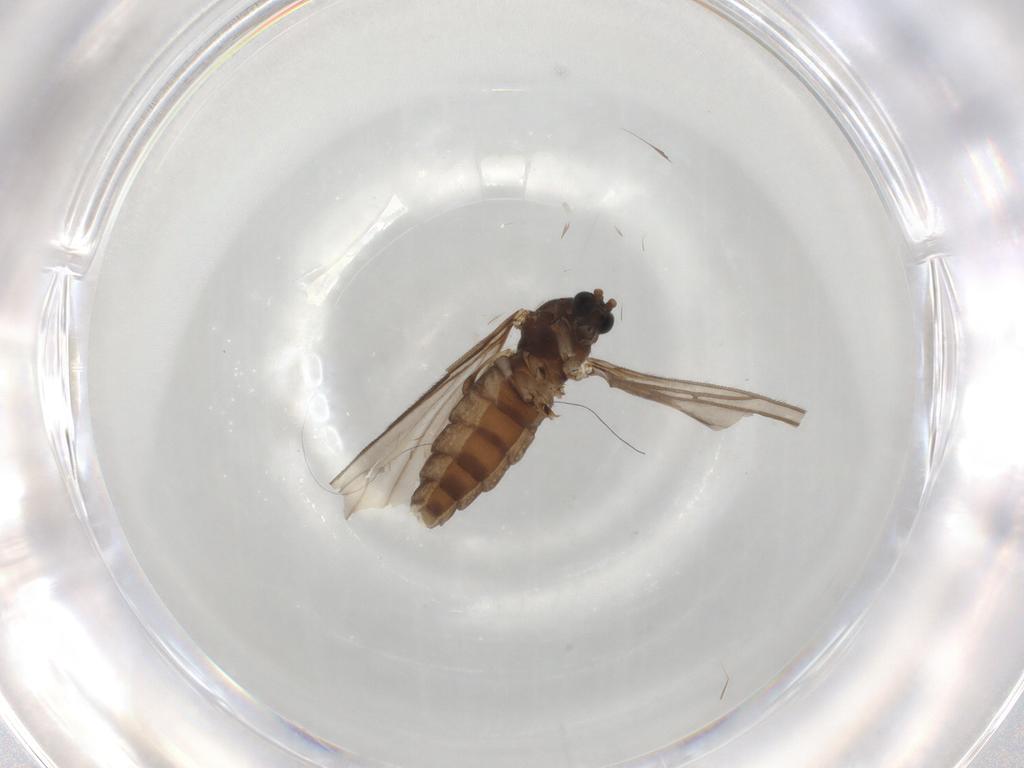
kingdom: Animalia
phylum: Arthropoda
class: Insecta
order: Diptera
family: Sciaridae
